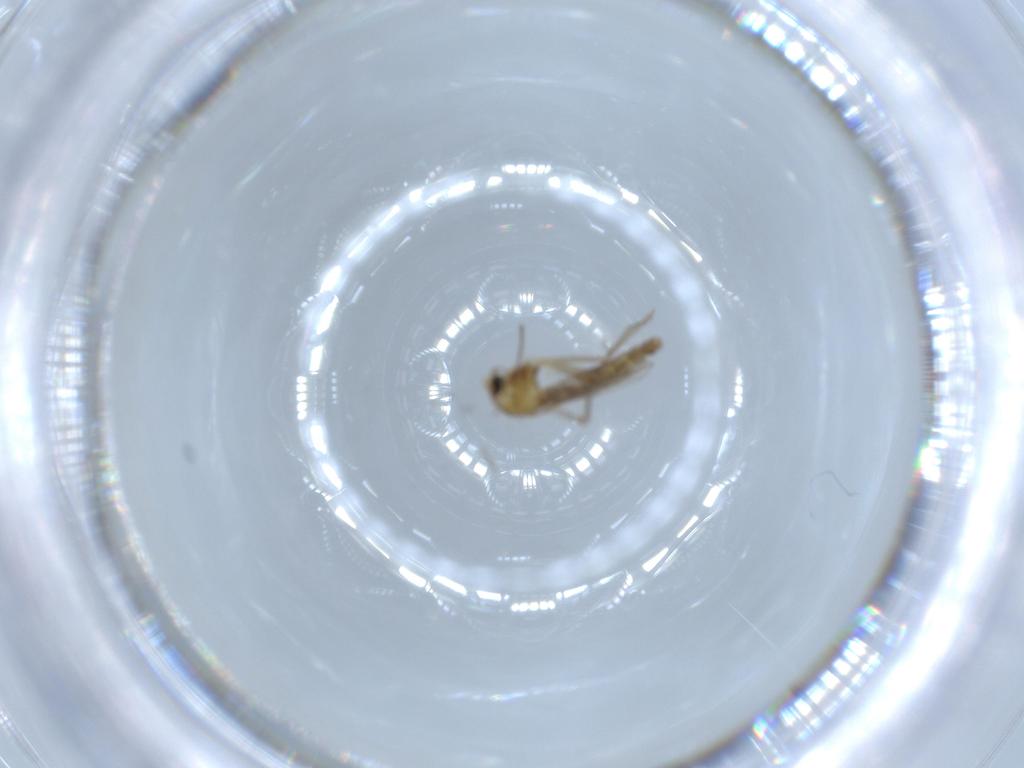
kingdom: Animalia
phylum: Arthropoda
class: Insecta
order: Diptera
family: Chironomidae
